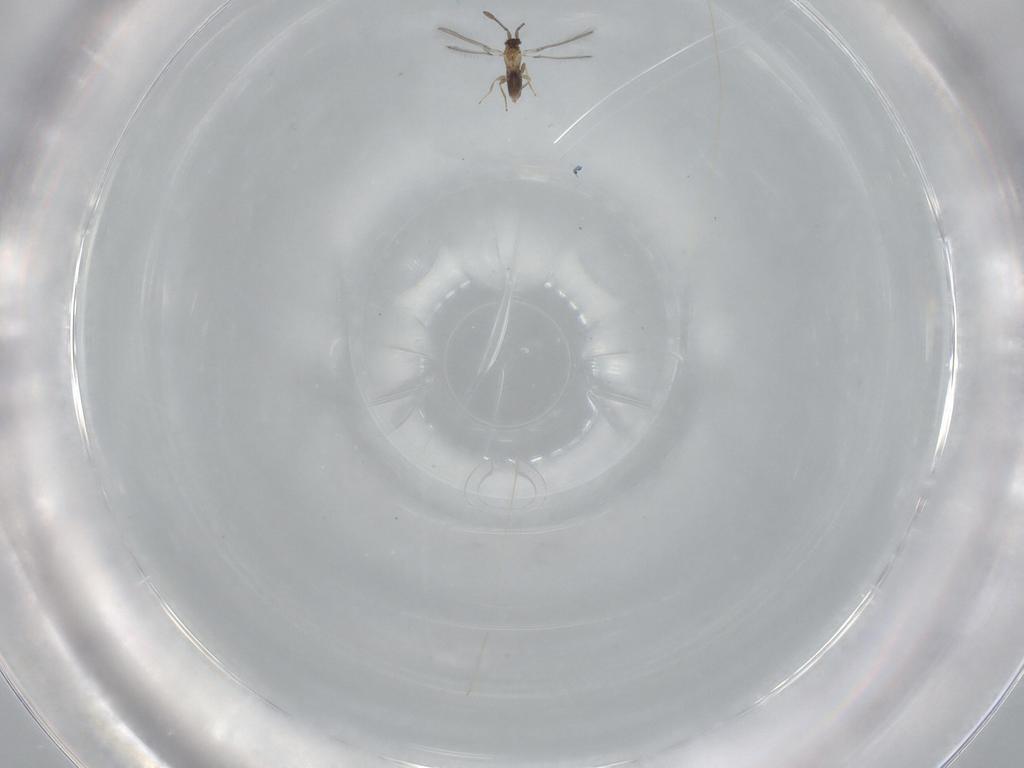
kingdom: Animalia
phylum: Arthropoda
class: Insecta
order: Hymenoptera
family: Mymaridae
